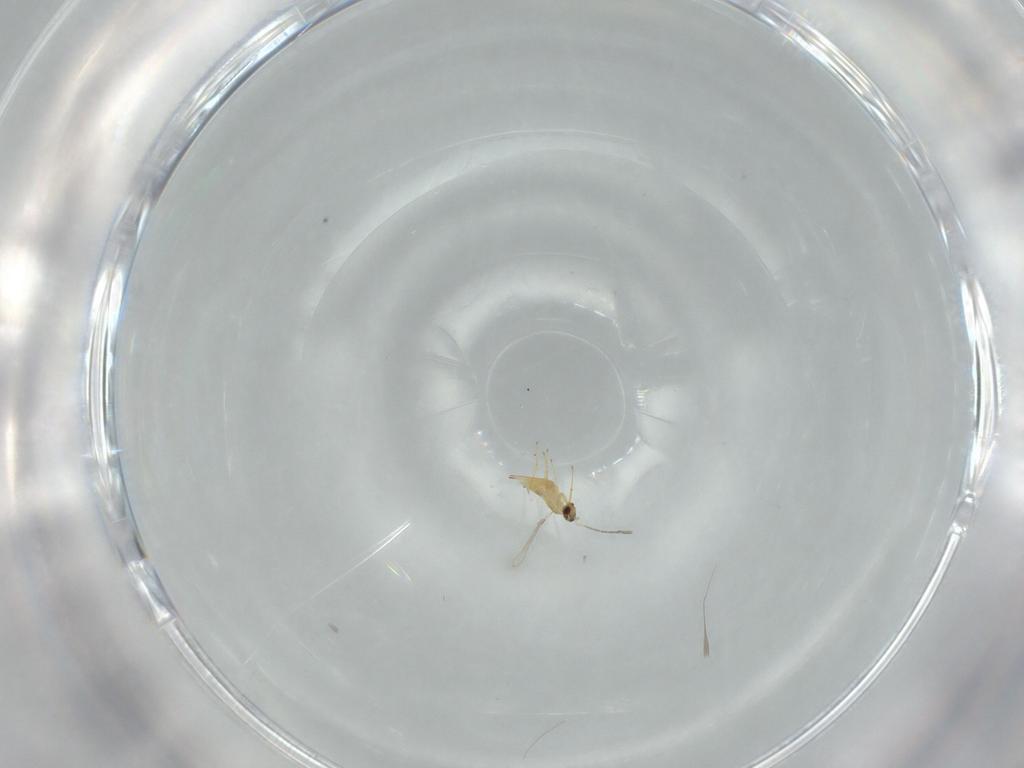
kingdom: Animalia
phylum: Arthropoda
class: Insecta
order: Hymenoptera
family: Mymaridae
